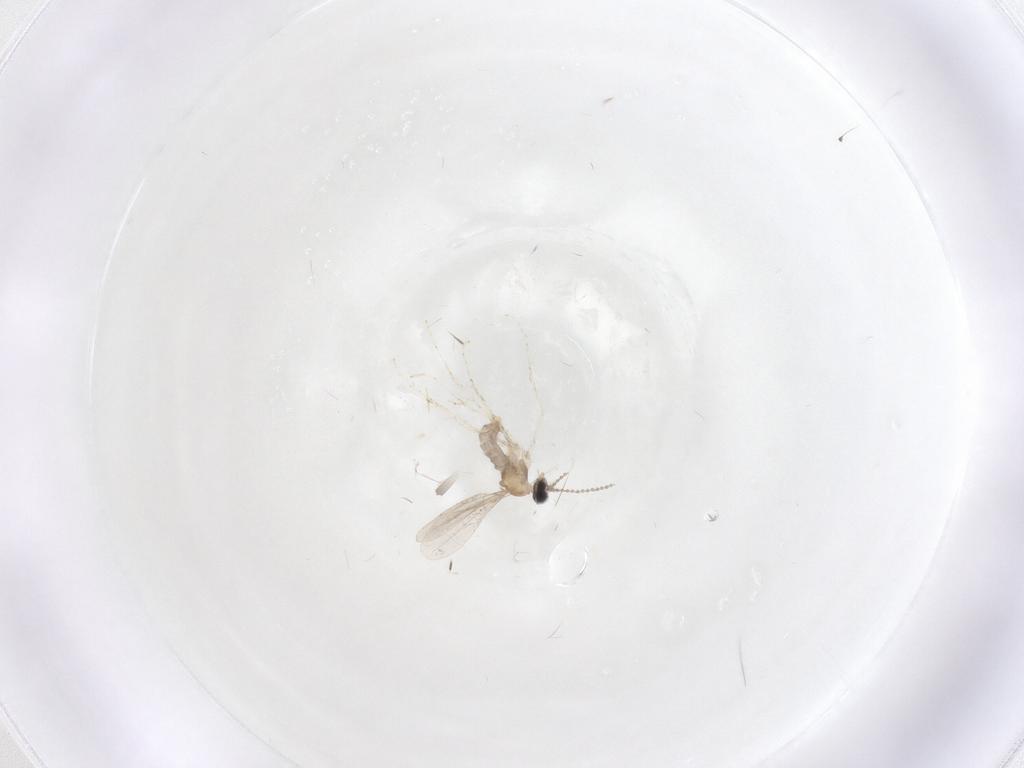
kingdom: Animalia
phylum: Arthropoda
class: Insecta
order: Diptera
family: Cecidomyiidae
